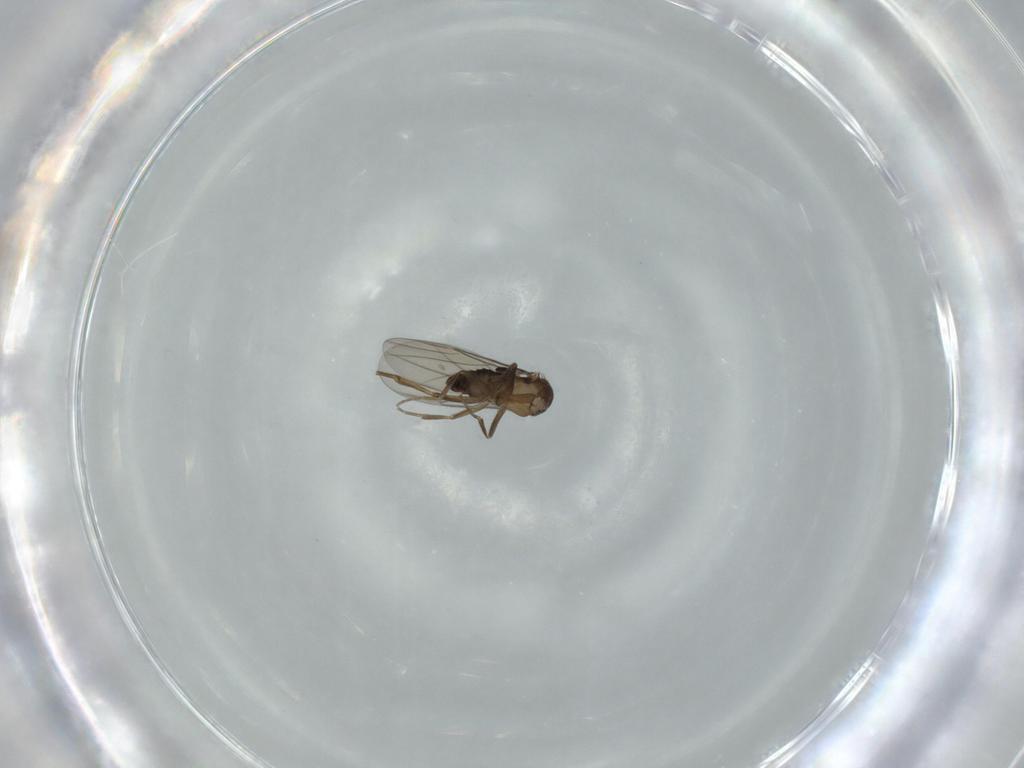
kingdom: Animalia
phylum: Arthropoda
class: Insecta
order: Diptera
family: Phoridae
